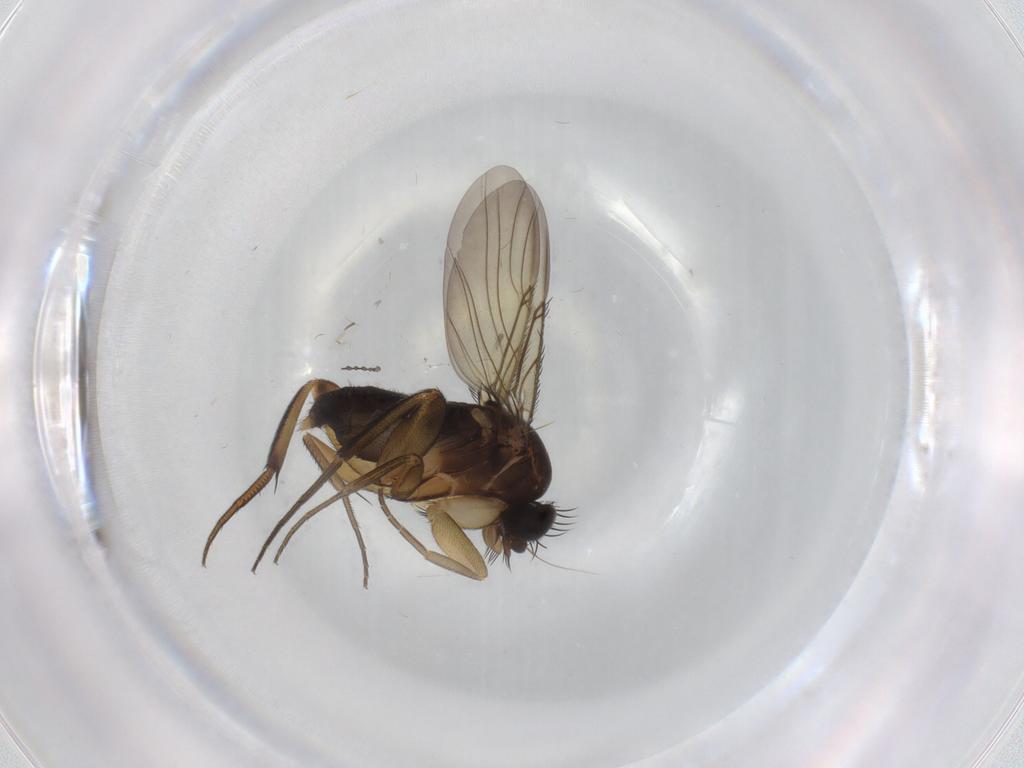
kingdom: Animalia
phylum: Arthropoda
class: Insecta
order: Diptera
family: Phoridae
